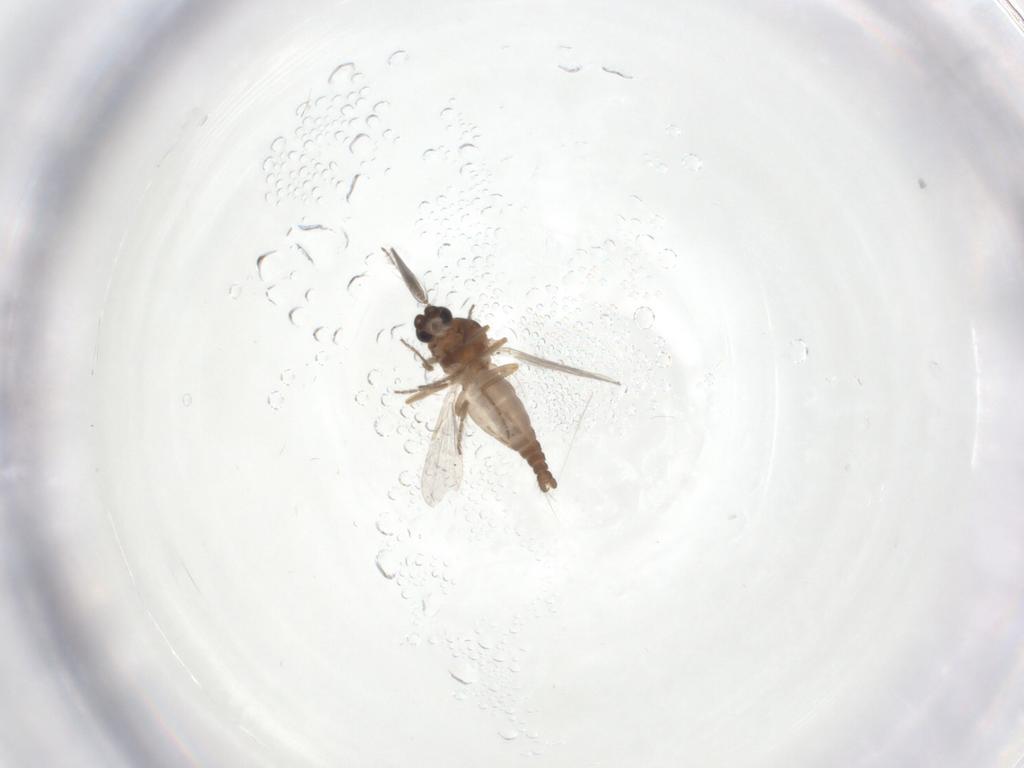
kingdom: Animalia
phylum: Arthropoda
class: Insecta
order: Diptera
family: Ceratopogonidae
